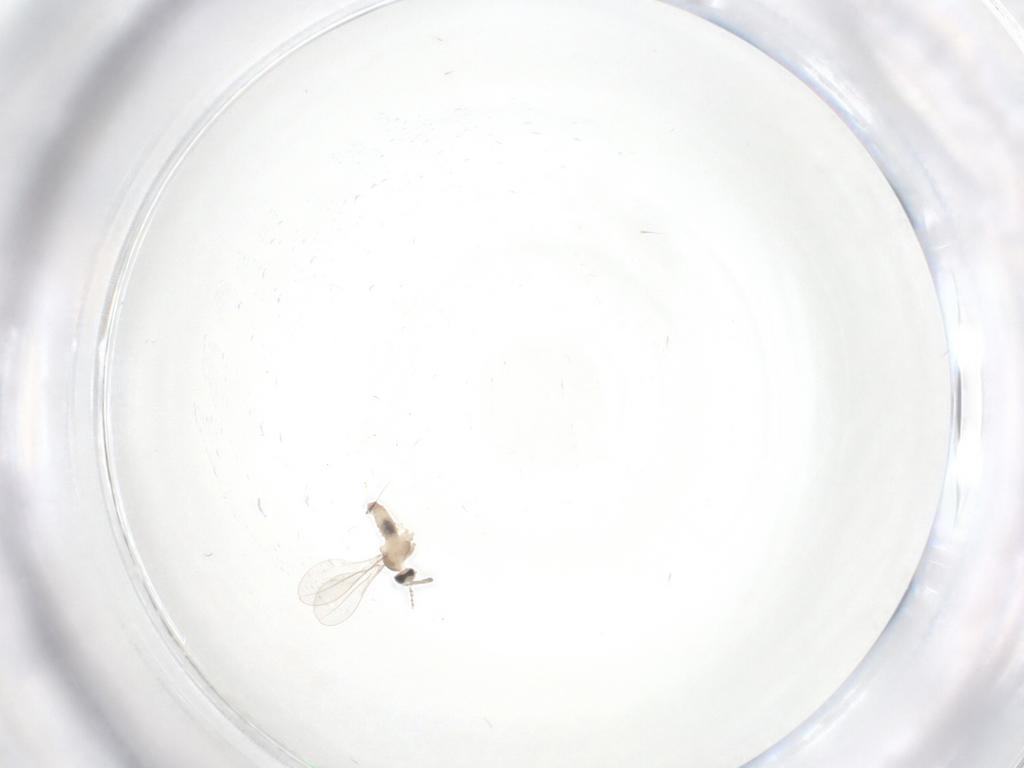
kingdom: Animalia
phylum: Arthropoda
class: Insecta
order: Diptera
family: Cecidomyiidae
